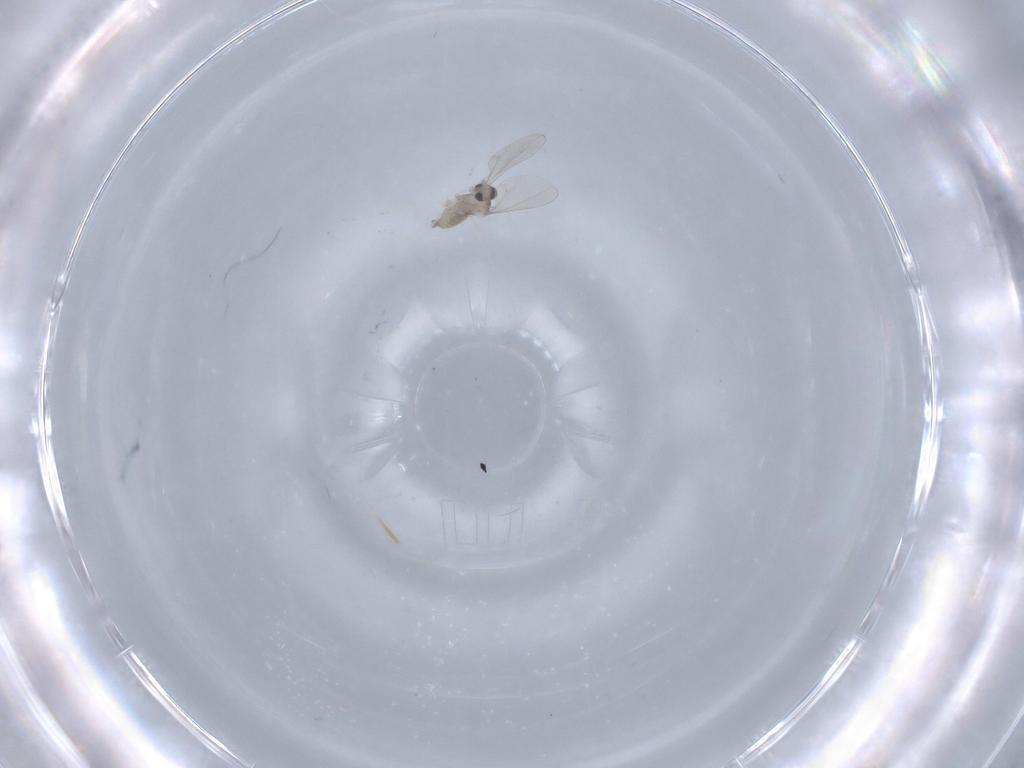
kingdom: Animalia
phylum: Arthropoda
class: Insecta
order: Diptera
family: Cecidomyiidae
